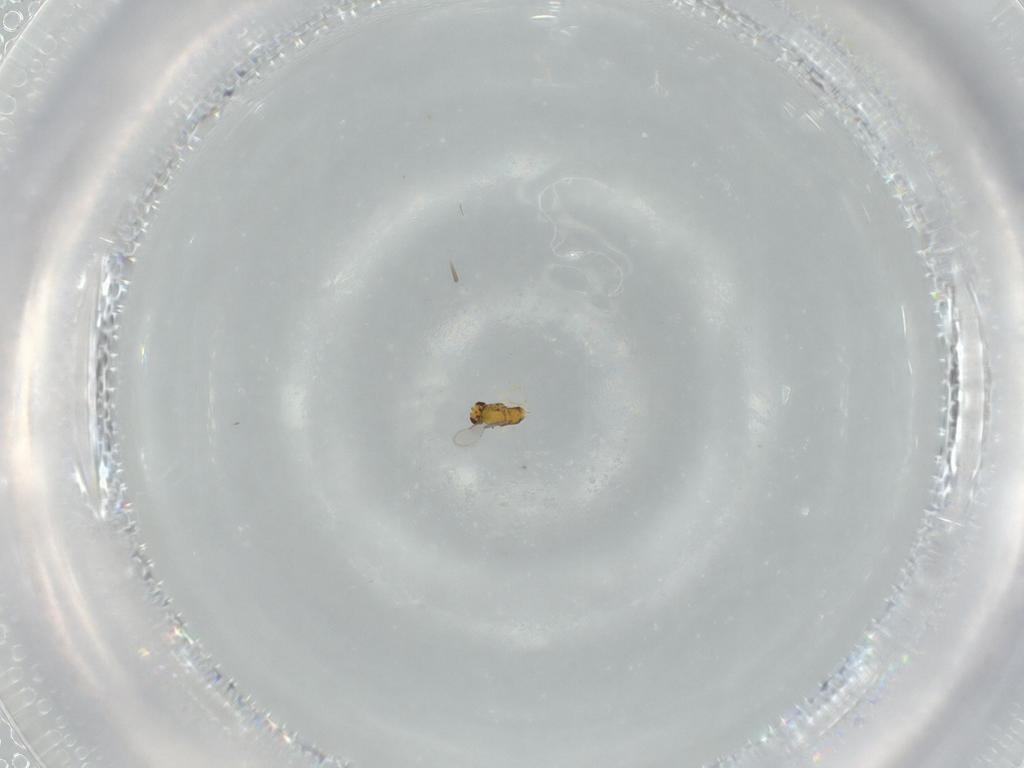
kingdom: Animalia
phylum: Arthropoda
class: Insecta
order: Hymenoptera
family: Aphelinidae
